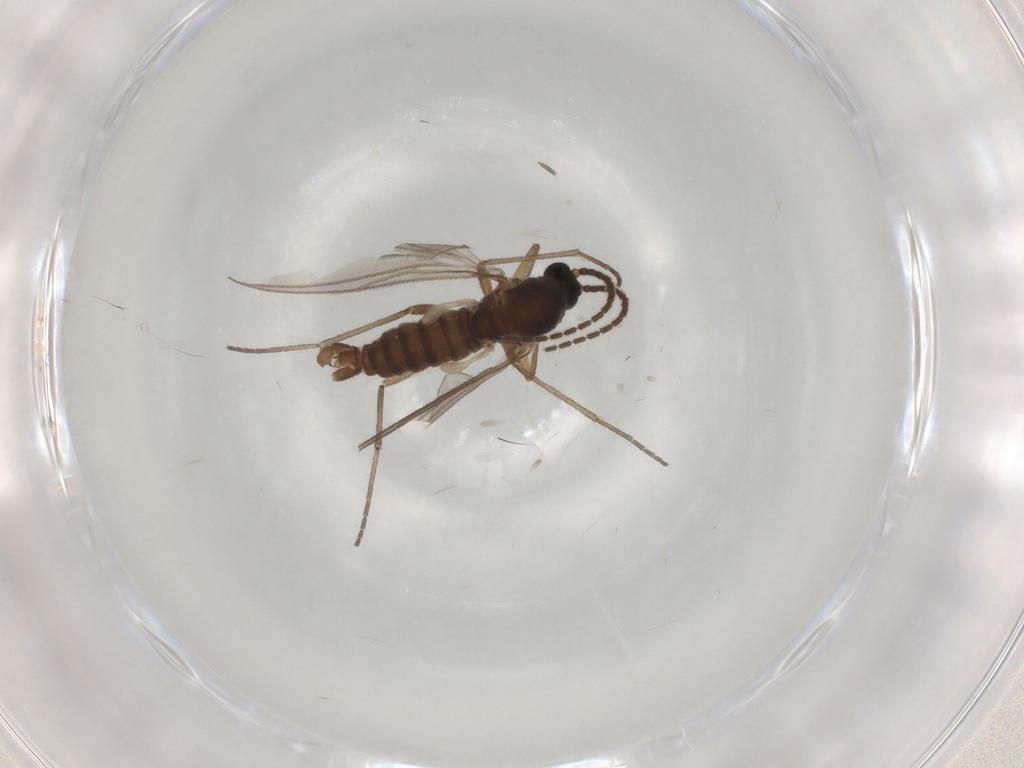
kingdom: Animalia
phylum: Arthropoda
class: Insecta
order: Diptera
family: Sciaridae
